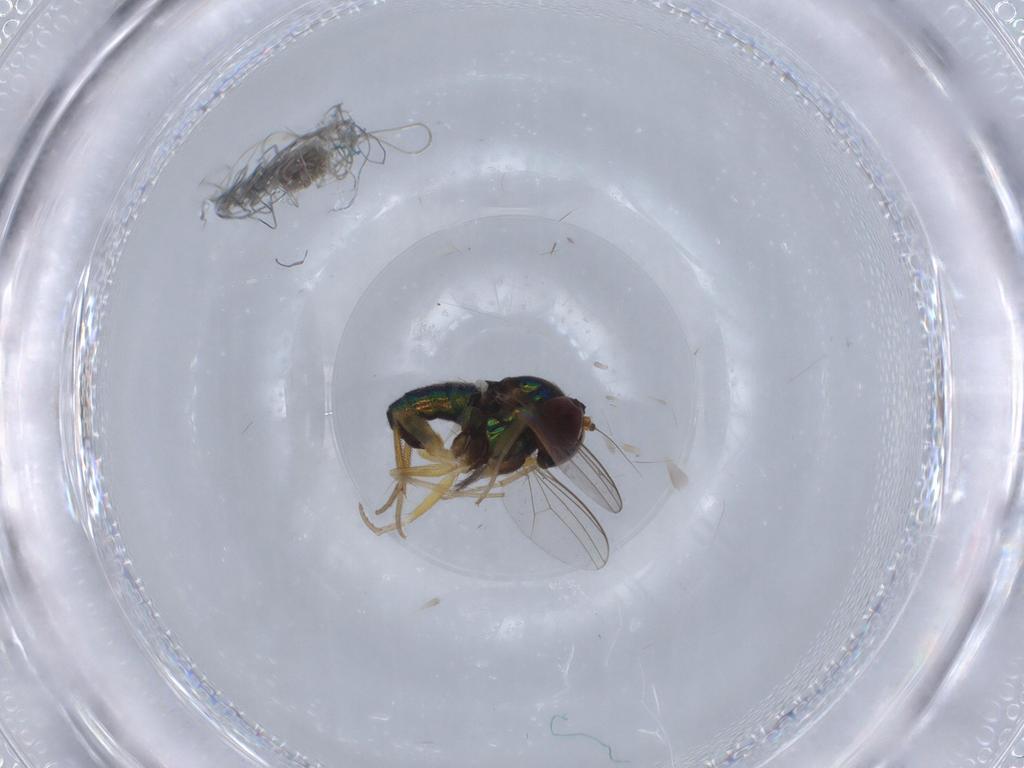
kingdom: Animalia
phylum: Arthropoda
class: Insecta
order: Diptera
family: Dolichopodidae
